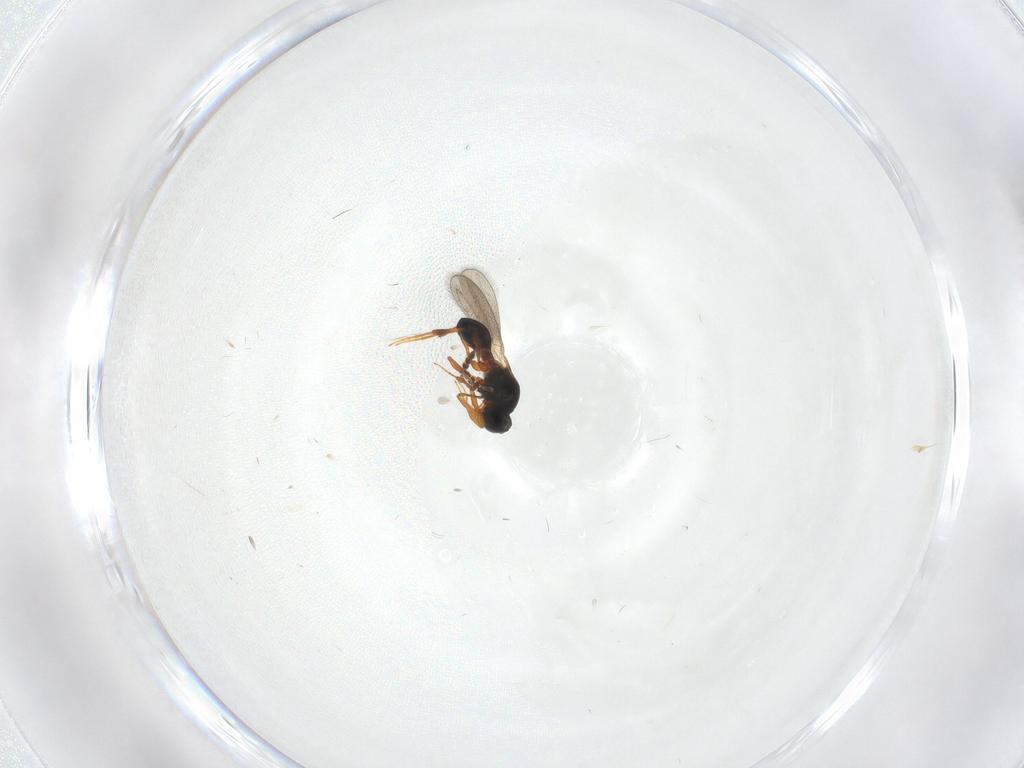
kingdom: Animalia
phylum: Arthropoda
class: Insecta
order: Hymenoptera
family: Platygastridae
